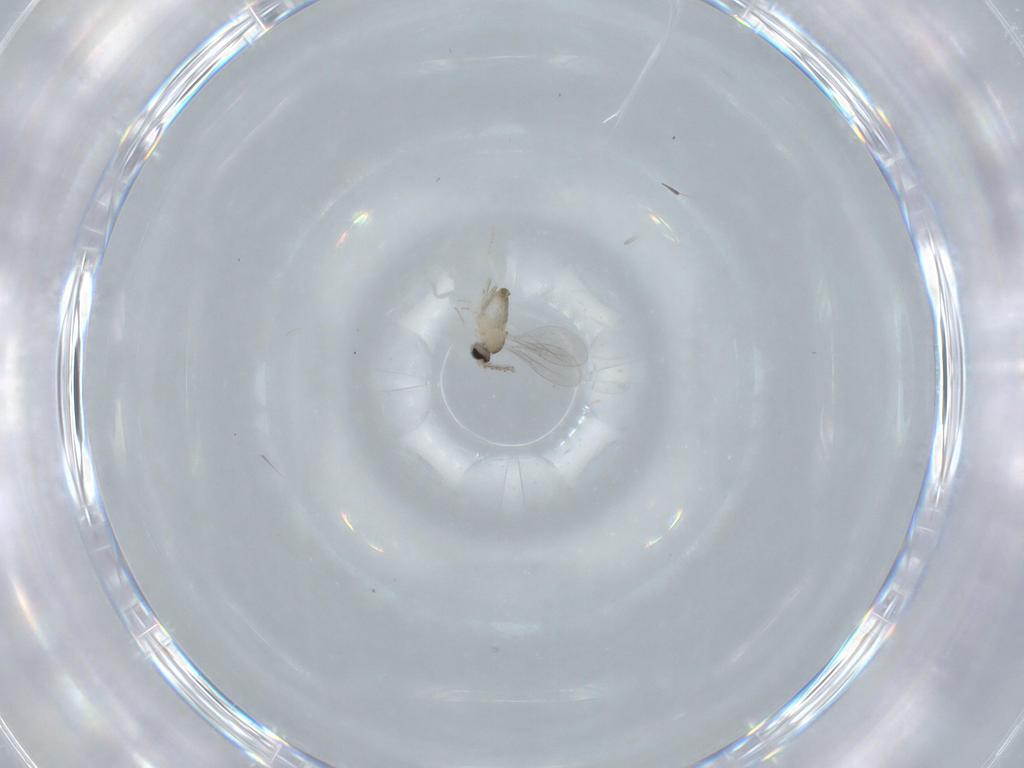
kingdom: Animalia
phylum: Arthropoda
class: Insecta
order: Diptera
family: Cecidomyiidae
